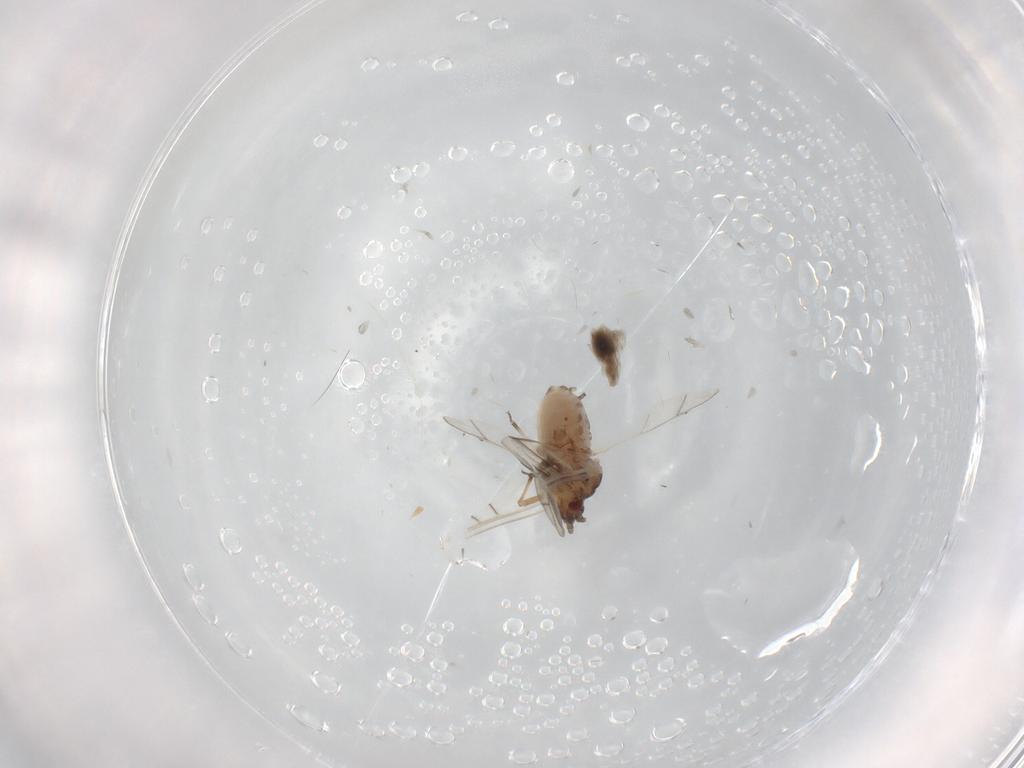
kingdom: Animalia
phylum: Arthropoda
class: Insecta
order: Hemiptera
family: Aphididae
